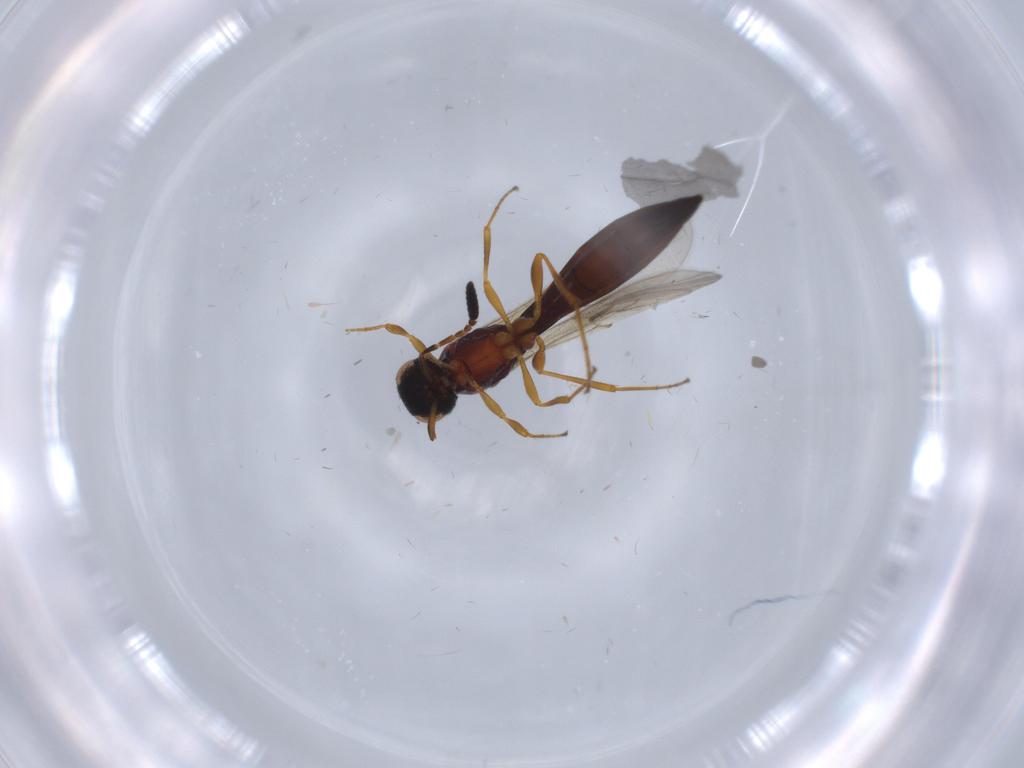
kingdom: Animalia
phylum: Arthropoda
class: Insecta
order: Hymenoptera
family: Scelionidae
